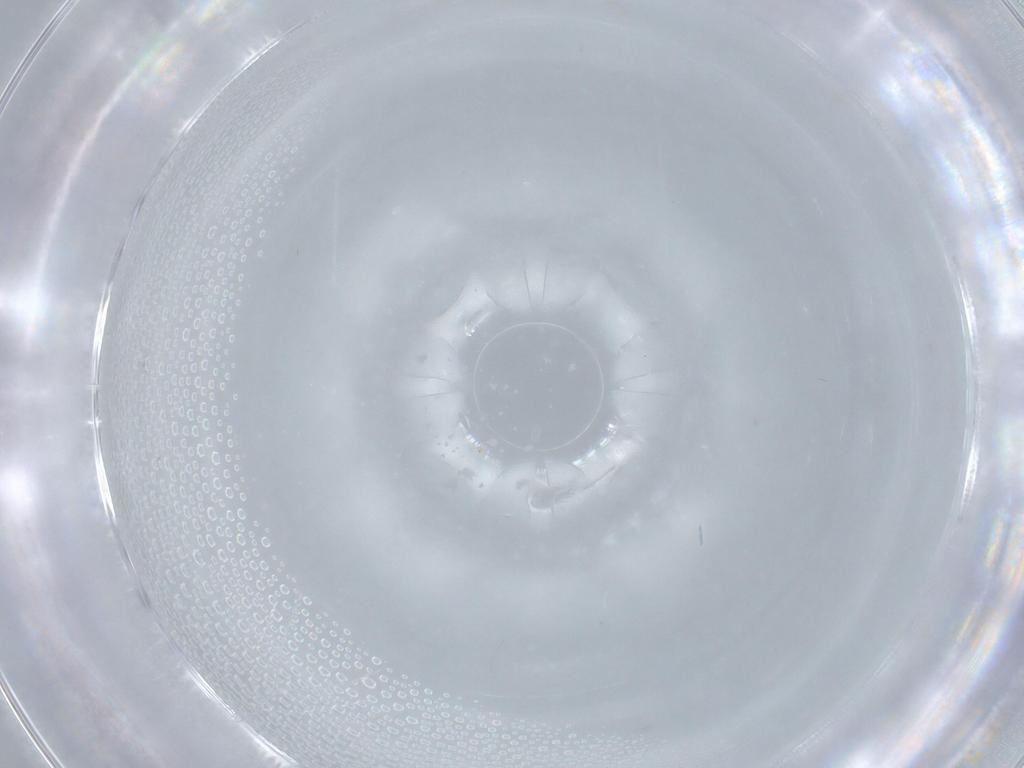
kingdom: Animalia
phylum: Arthropoda
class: Insecta
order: Diptera
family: Sciaridae
